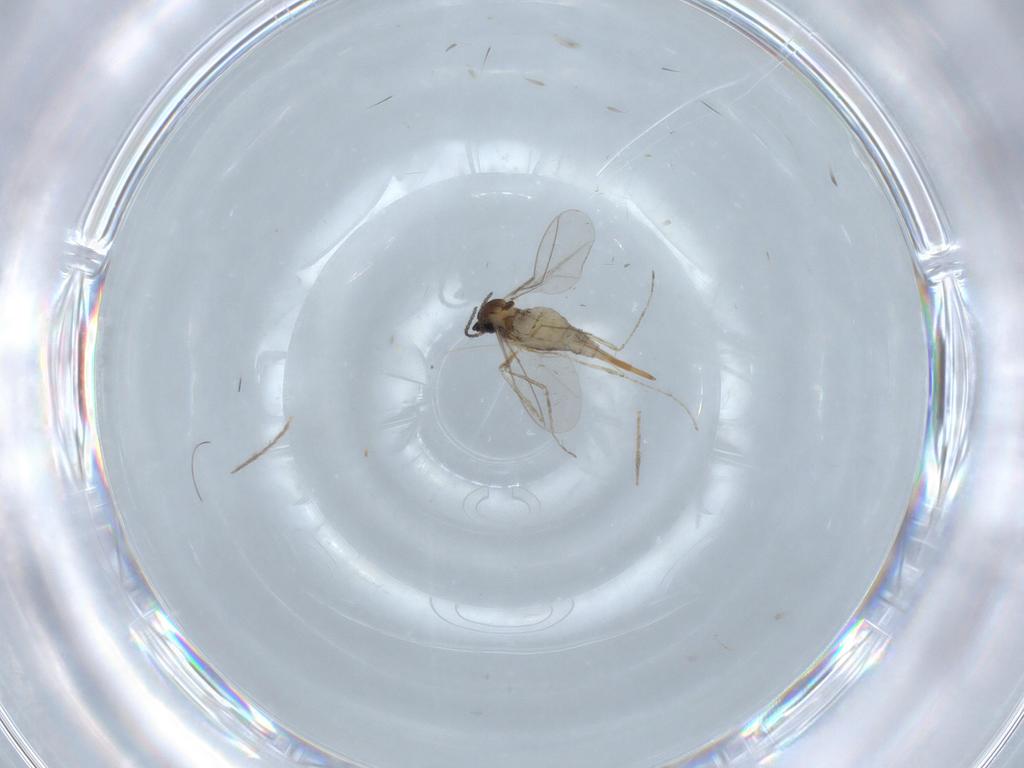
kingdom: Animalia
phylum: Arthropoda
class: Insecta
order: Diptera
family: Cecidomyiidae
